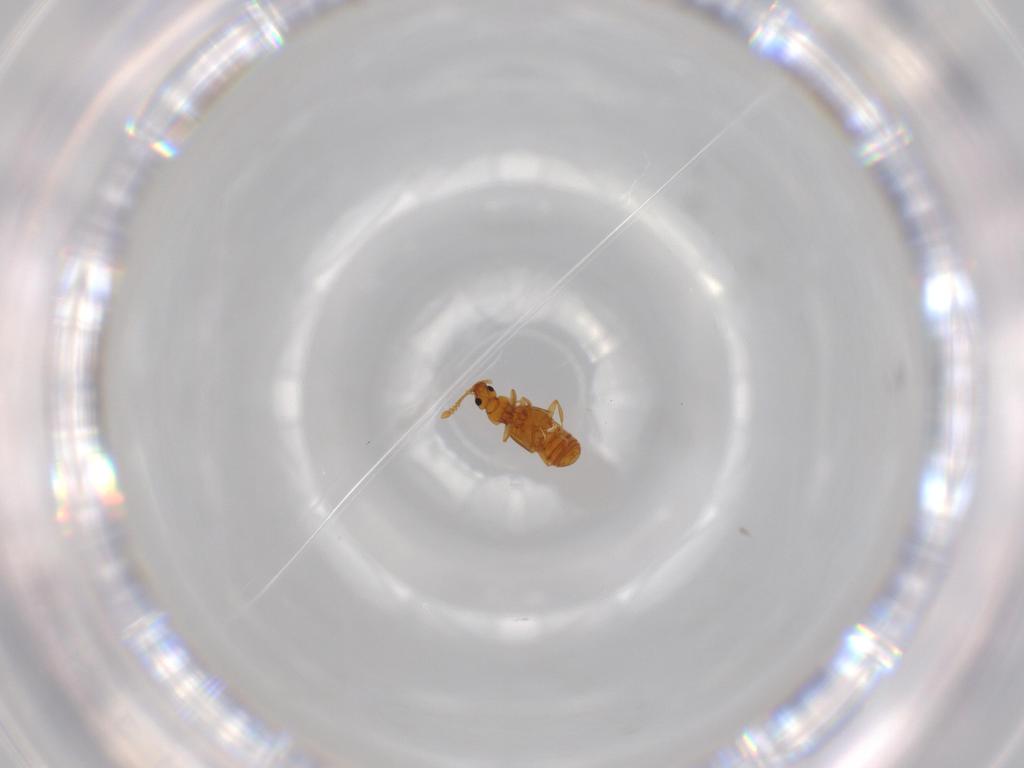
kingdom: Animalia
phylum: Arthropoda
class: Insecta
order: Coleoptera
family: Staphylinidae
